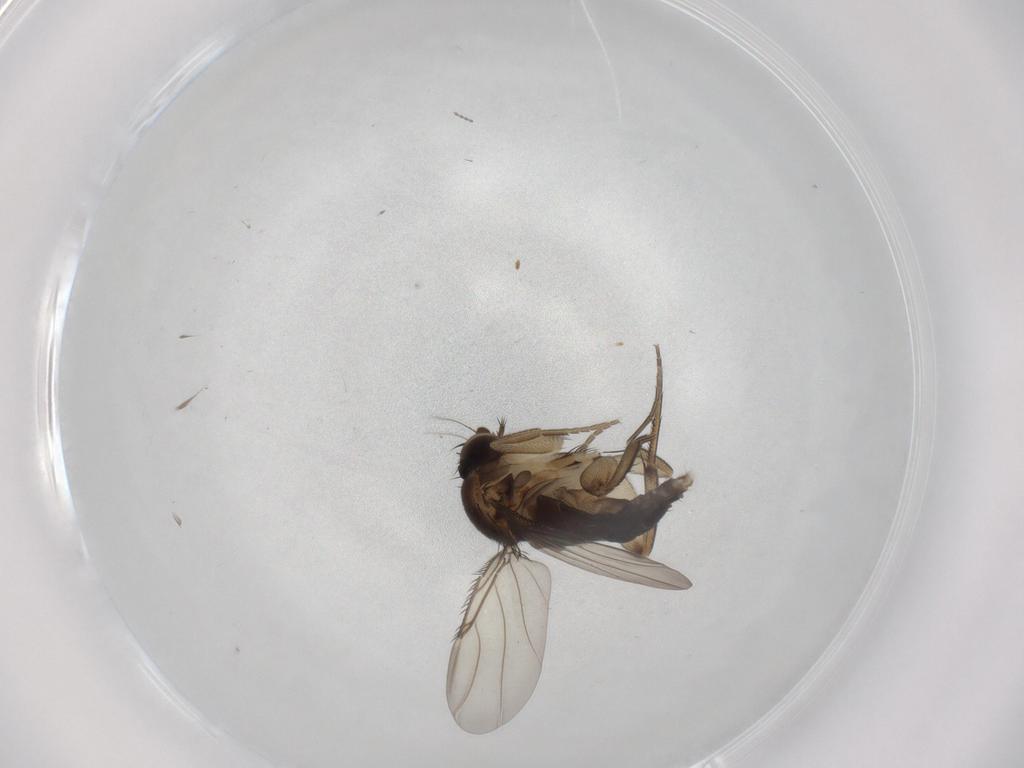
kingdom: Animalia
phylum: Arthropoda
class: Insecta
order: Diptera
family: Phoridae
